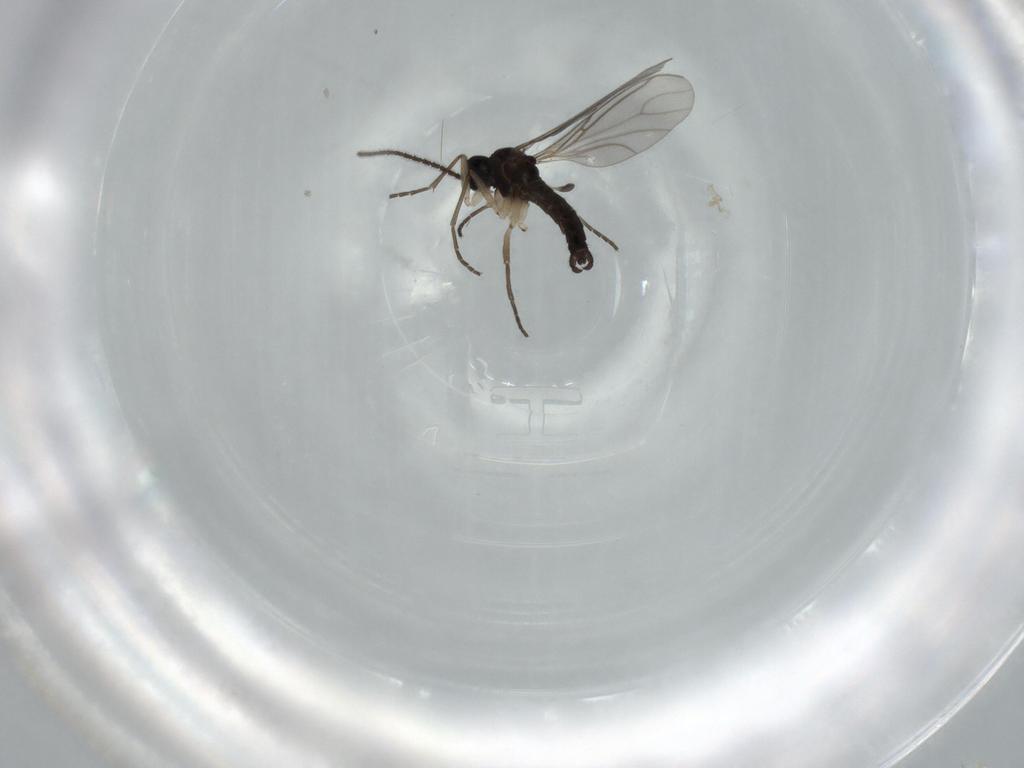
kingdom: Animalia
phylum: Arthropoda
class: Insecta
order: Diptera
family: Sciaridae
